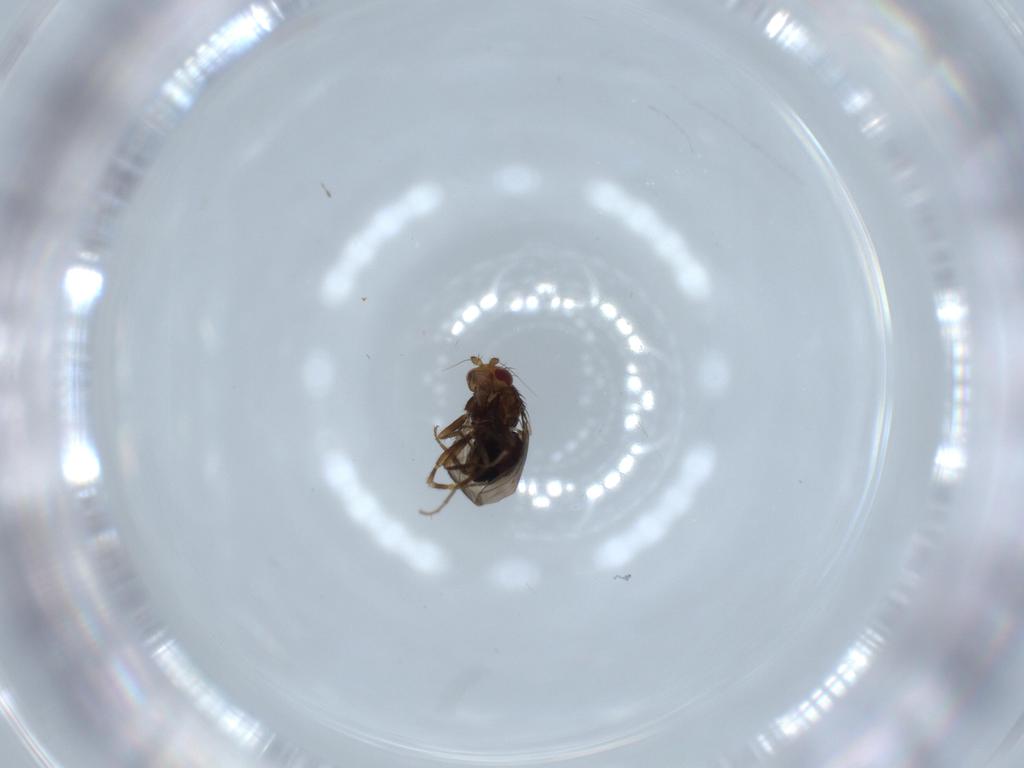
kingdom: Animalia
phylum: Arthropoda
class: Insecta
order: Diptera
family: Sphaeroceridae
